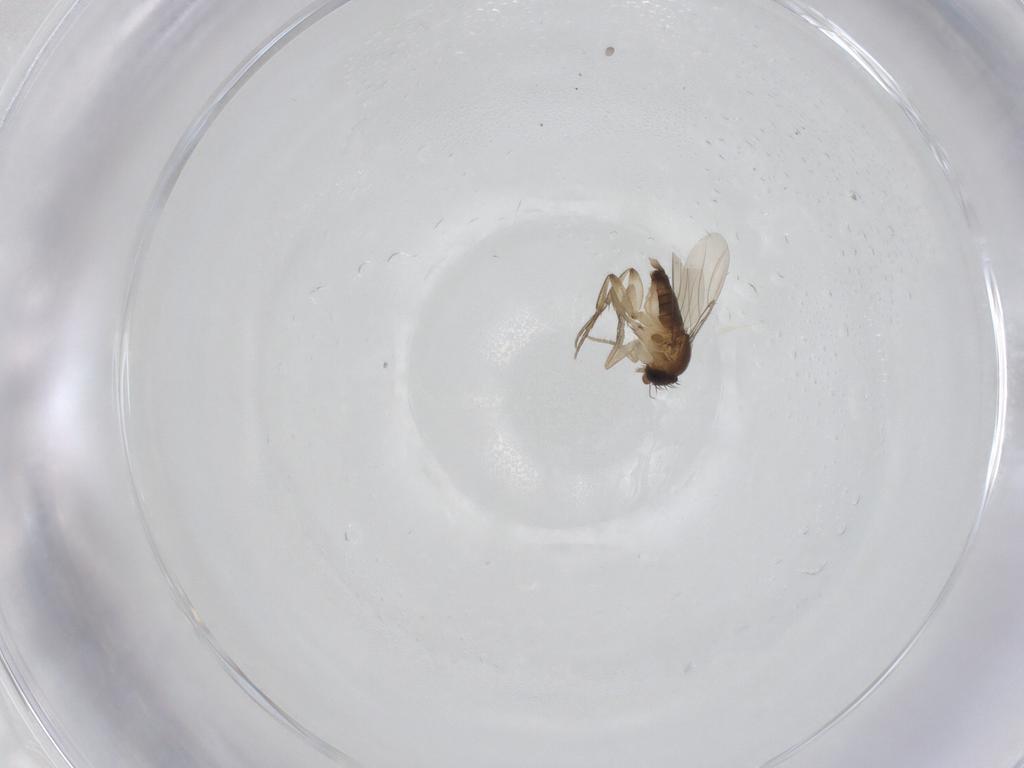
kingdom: Animalia
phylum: Arthropoda
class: Insecta
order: Diptera
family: Phoridae
